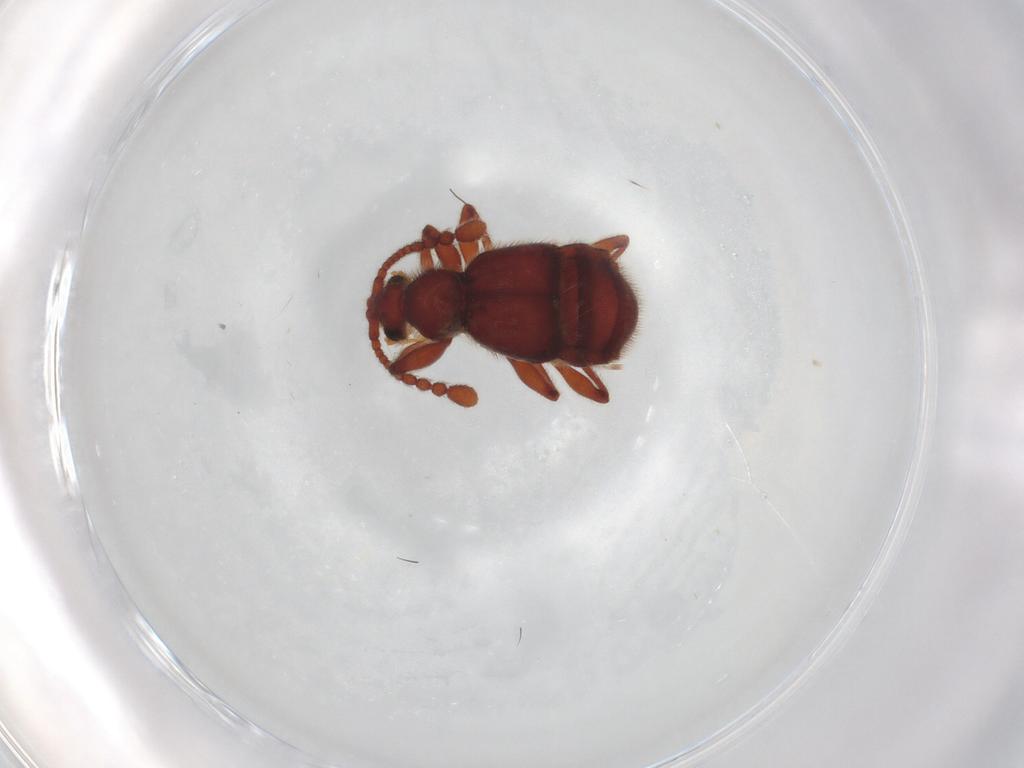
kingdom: Animalia
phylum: Arthropoda
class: Insecta
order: Coleoptera
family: Staphylinidae
